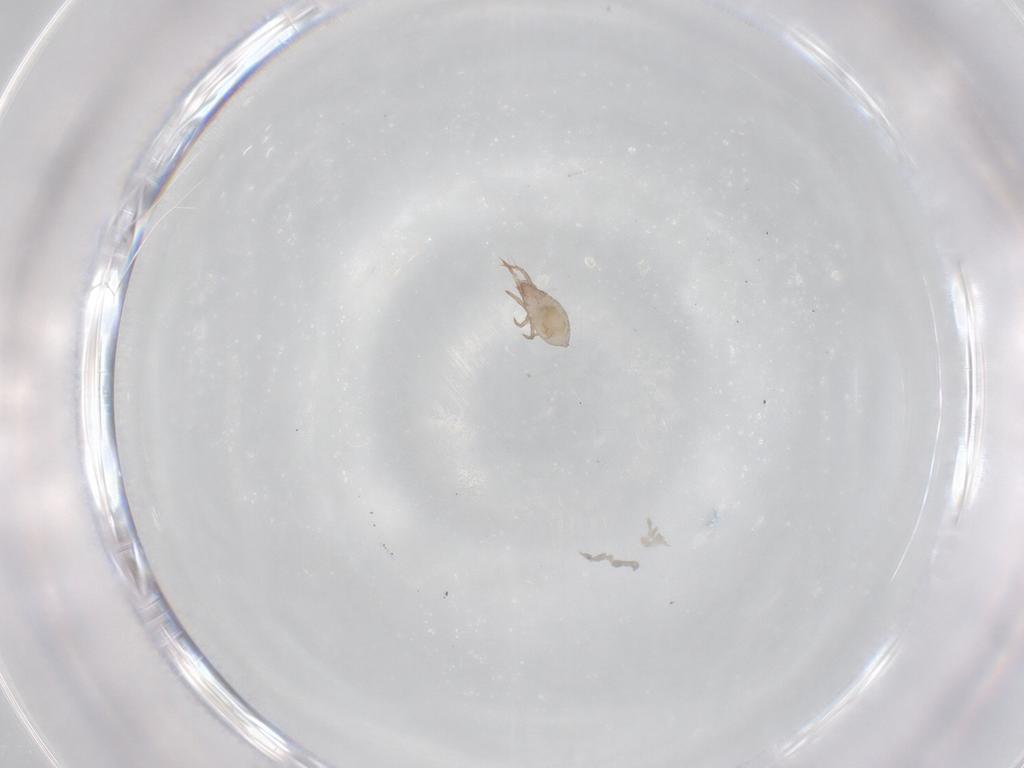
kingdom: Animalia
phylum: Arthropoda
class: Arachnida
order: Sarcoptiformes
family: Ceratoppiidae
